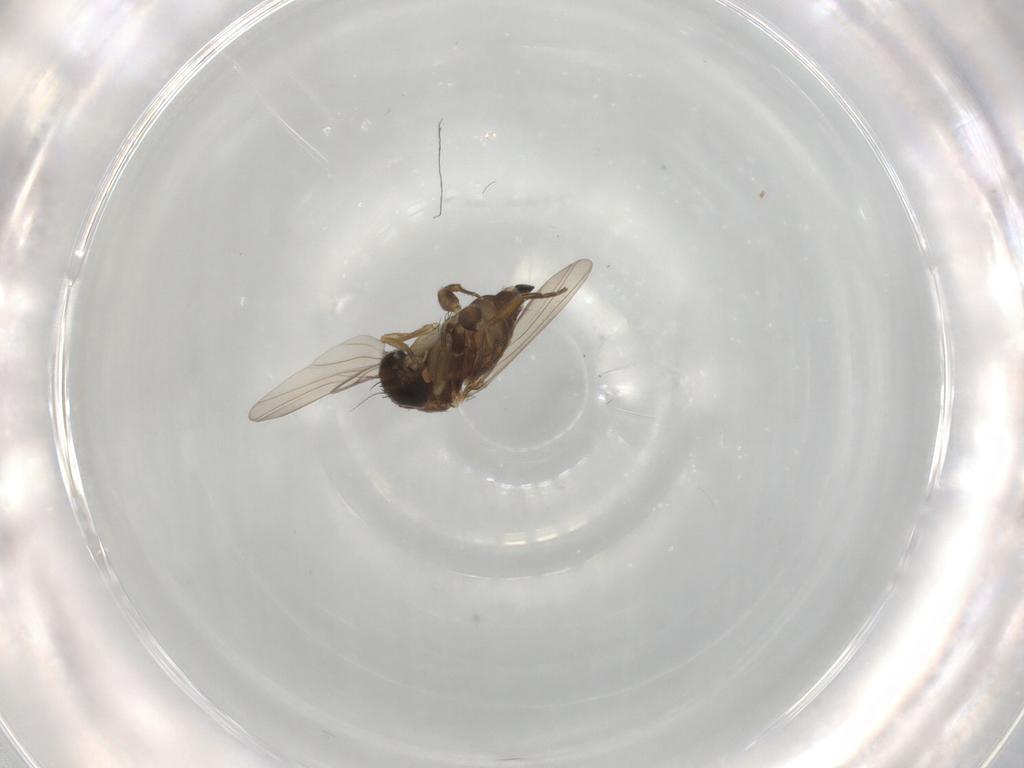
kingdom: Animalia
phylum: Arthropoda
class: Insecta
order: Diptera
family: Phoridae
